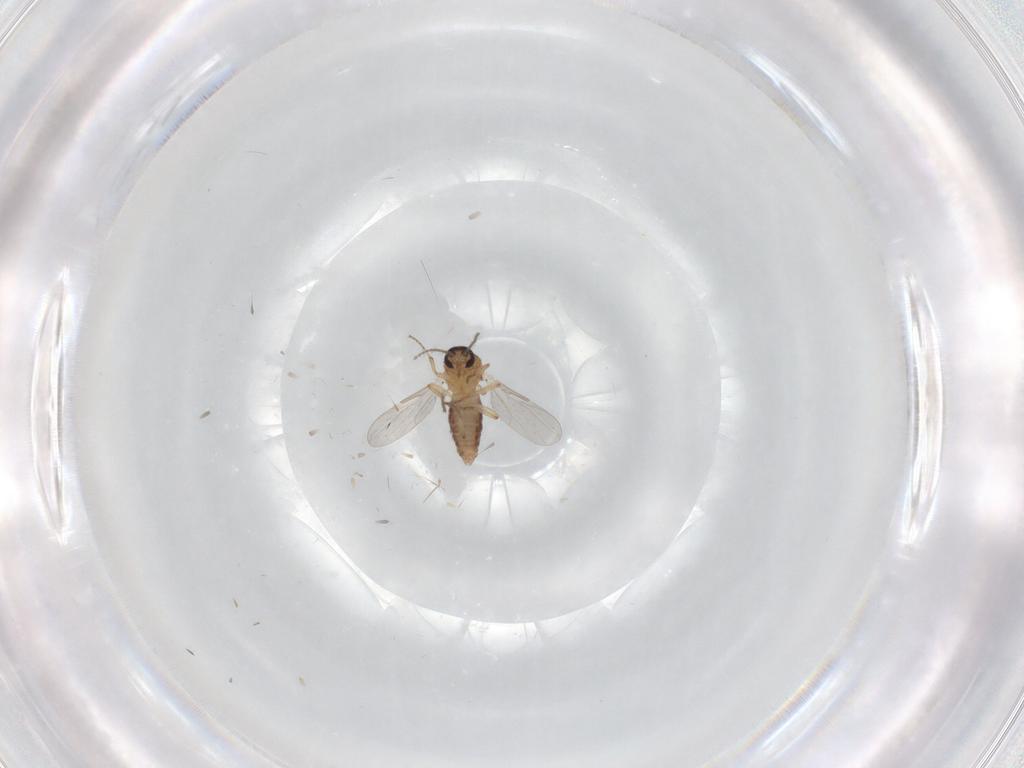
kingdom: Animalia
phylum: Arthropoda
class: Insecta
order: Diptera
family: Ceratopogonidae
